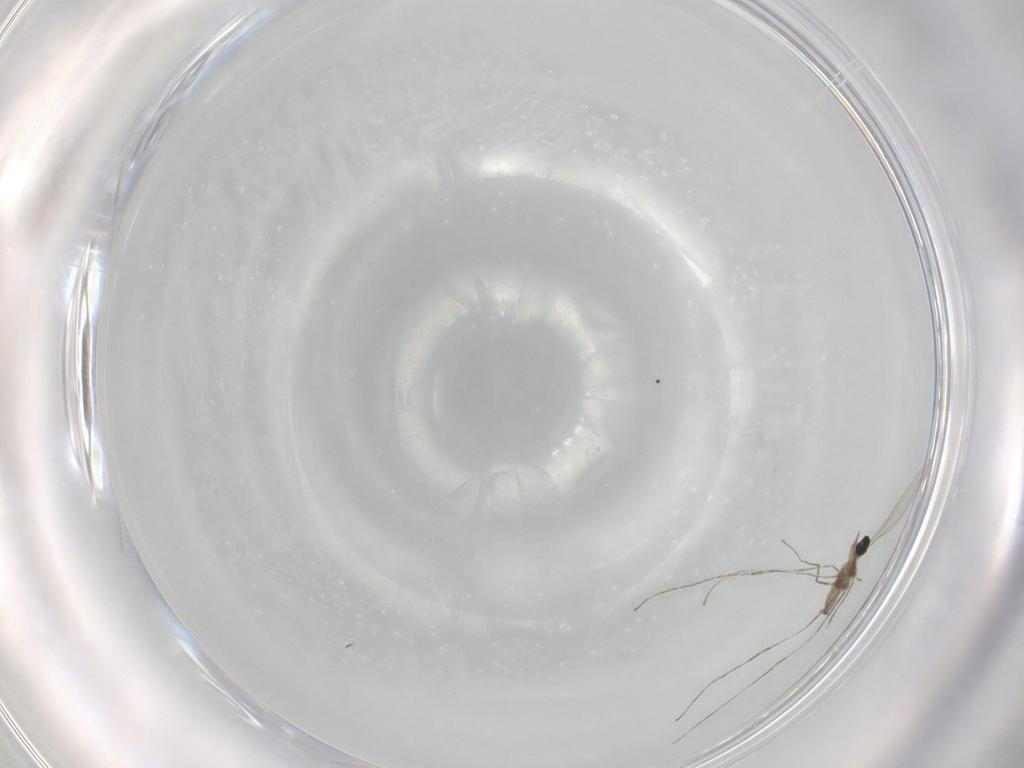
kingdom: Animalia
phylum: Arthropoda
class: Insecta
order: Diptera
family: Cecidomyiidae
